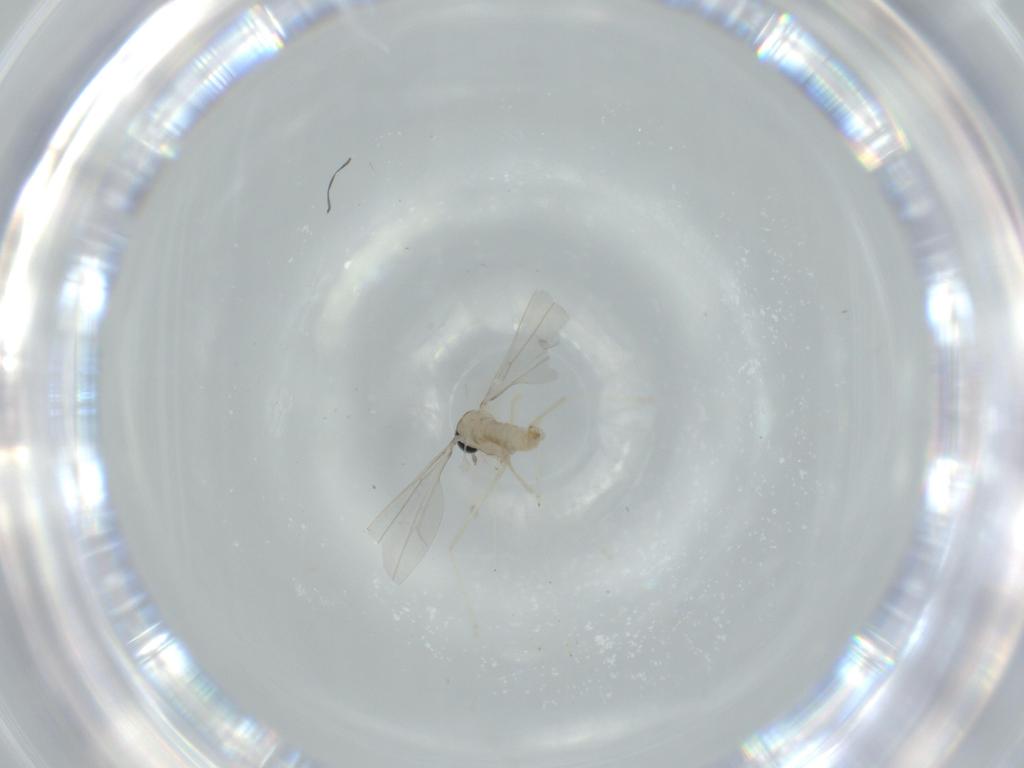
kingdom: Animalia
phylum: Arthropoda
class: Insecta
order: Diptera
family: Cecidomyiidae
